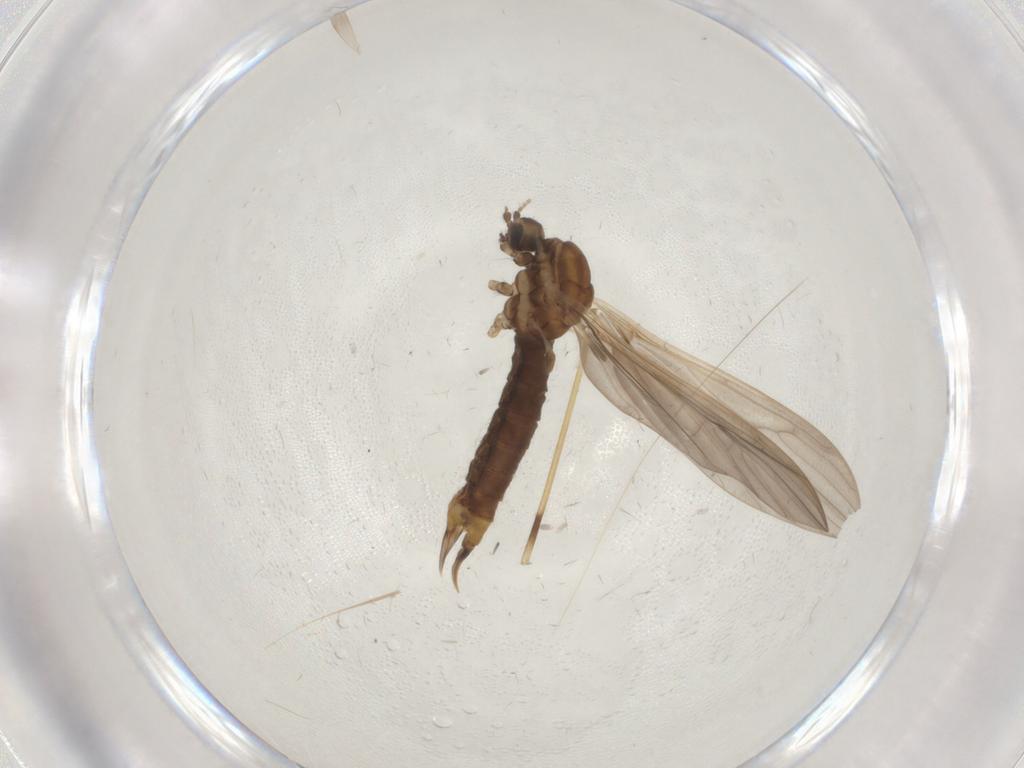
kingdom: Animalia
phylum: Arthropoda
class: Insecta
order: Diptera
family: Limoniidae
